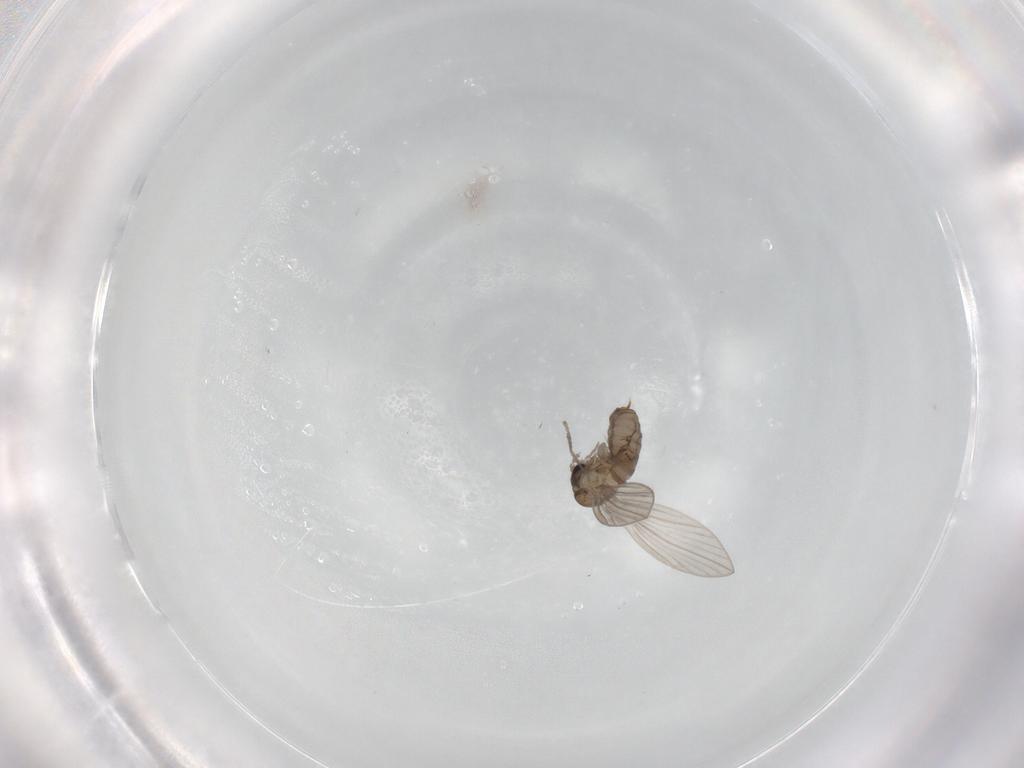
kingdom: Animalia
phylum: Arthropoda
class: Insecta
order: Diptera
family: Psychodidae
